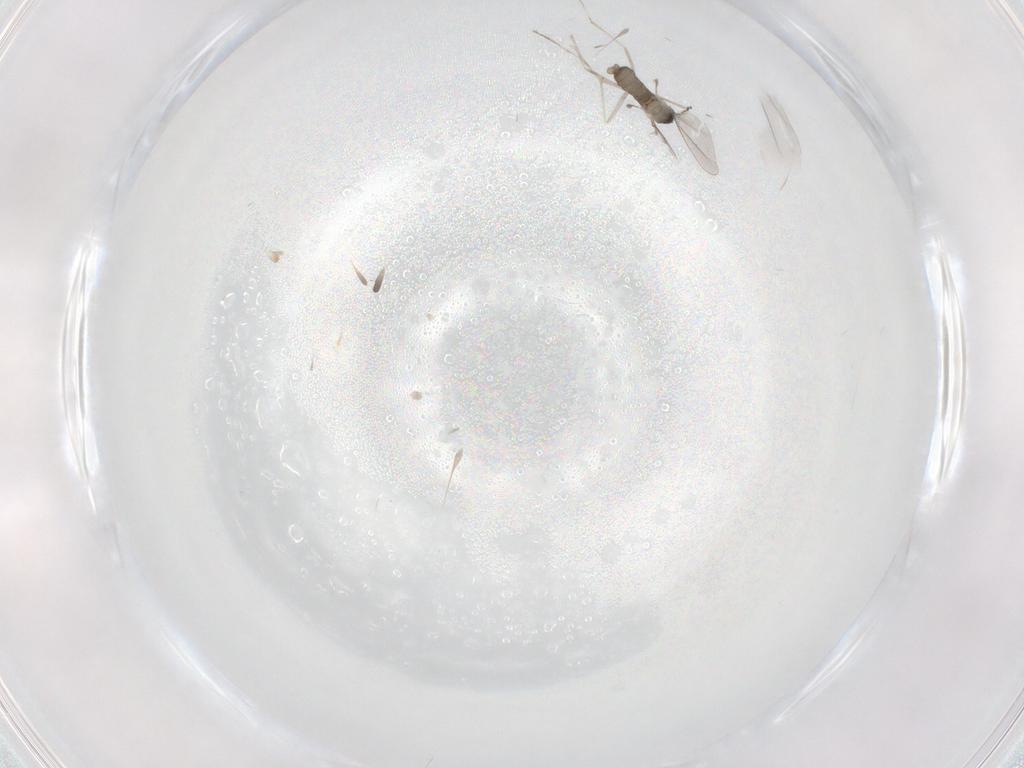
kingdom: Animalia
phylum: Arthropoda
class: Insecta
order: Diptera
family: Cecidomyiidae
